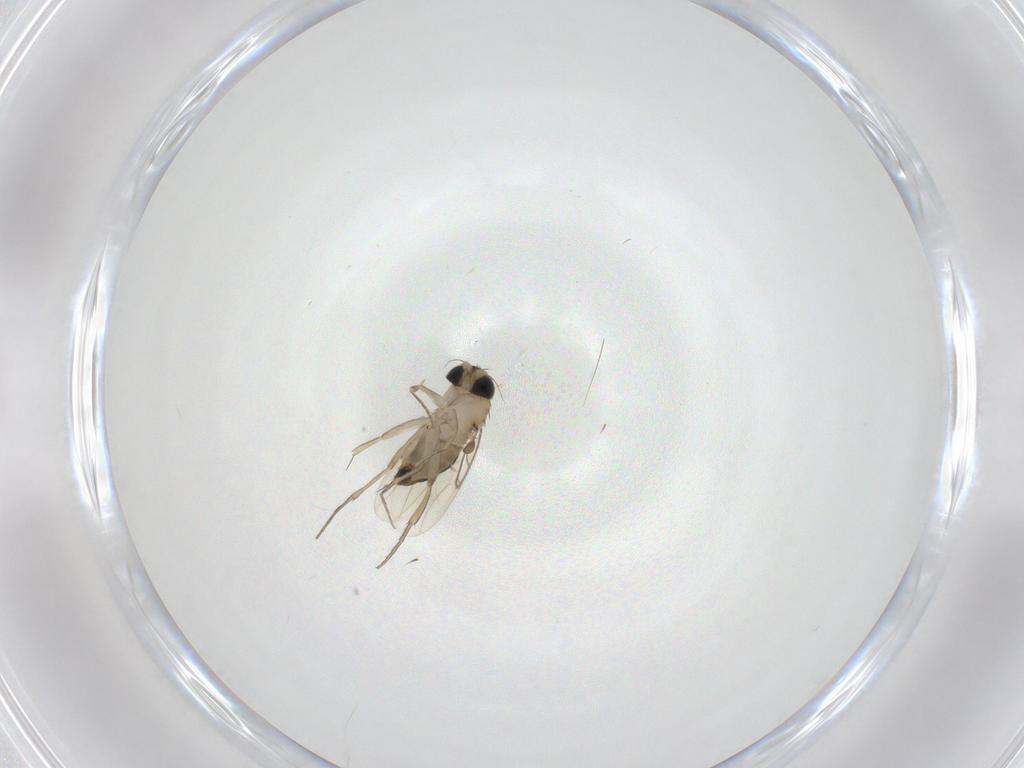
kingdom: Animalia
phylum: Arthropoda
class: Insecta
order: Diptera
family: Phoridae
